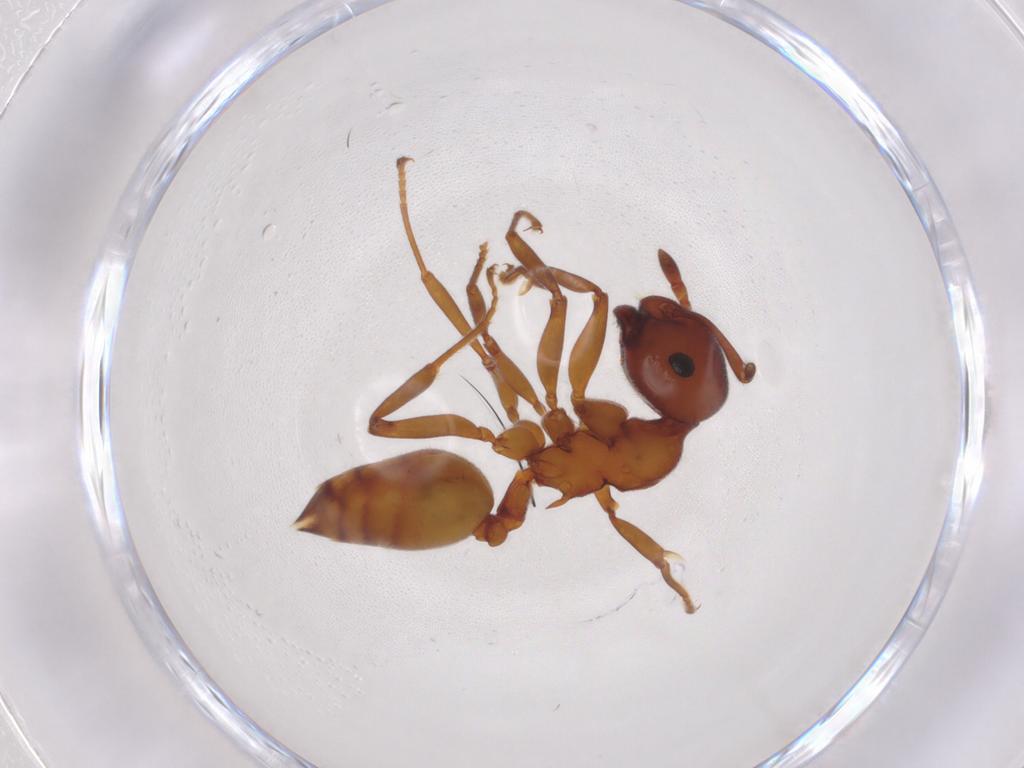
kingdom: Animalia
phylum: Arthropoda
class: Insecta
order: Hymenoptera
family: Formicidae
